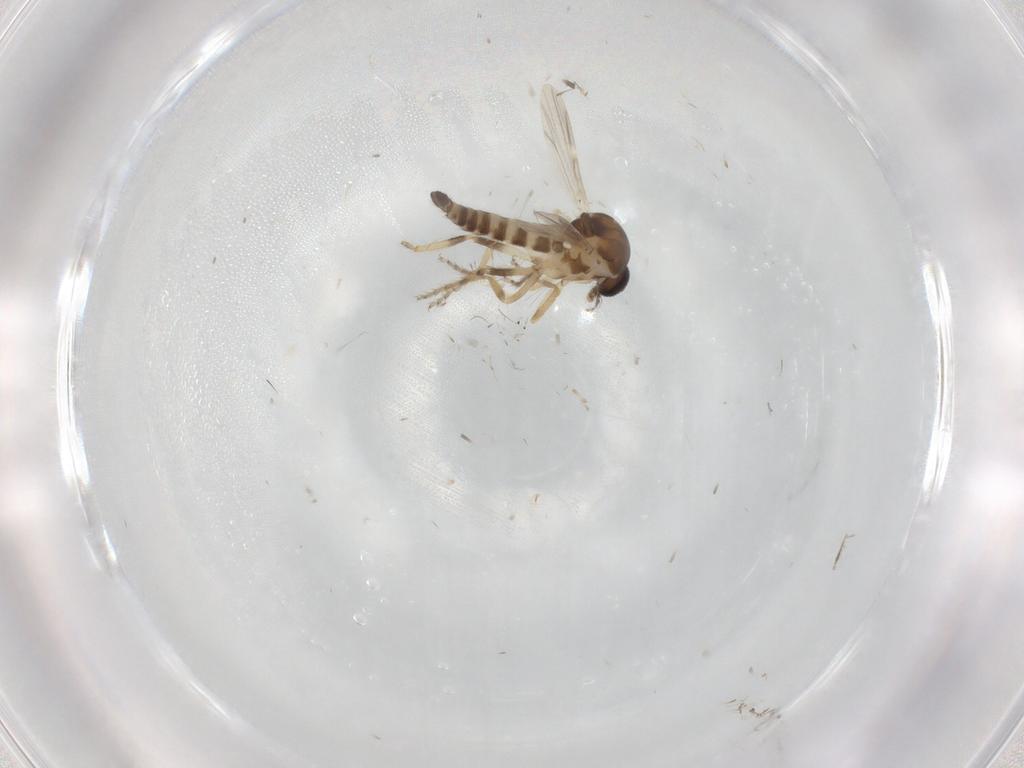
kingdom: Animalia
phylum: Arthropoda
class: Insecta
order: Diptera
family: Ceratopogonidae
